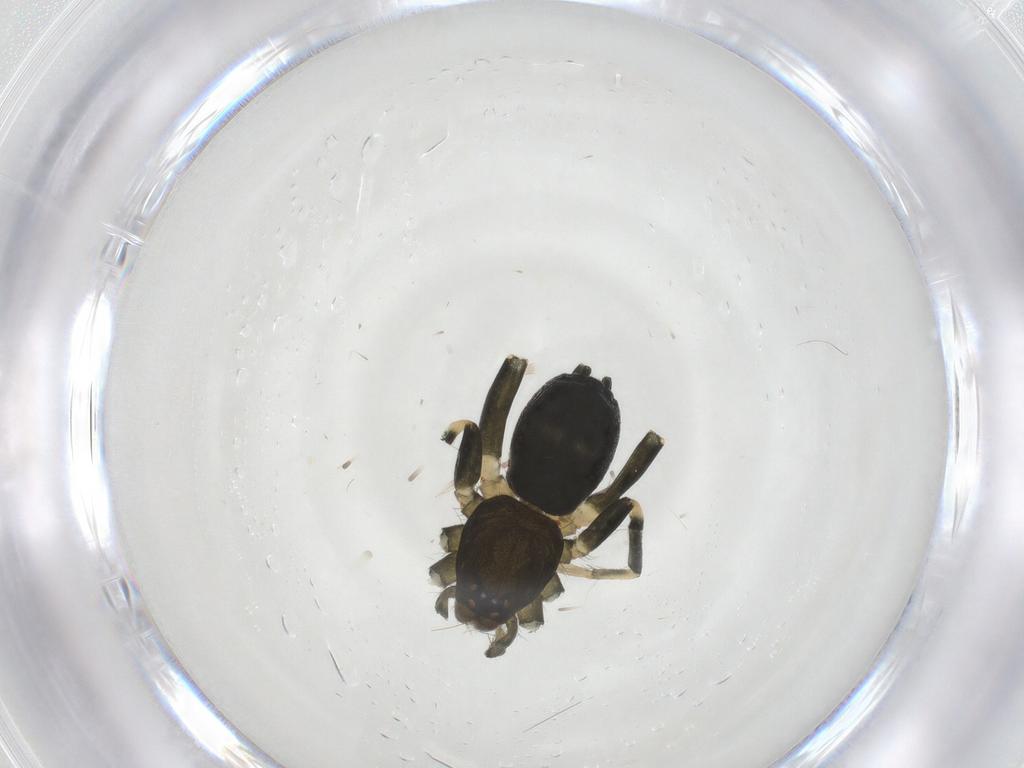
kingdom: Animalia
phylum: Arthropoda
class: Arachnida
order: Araneae
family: Gnaphosidae
